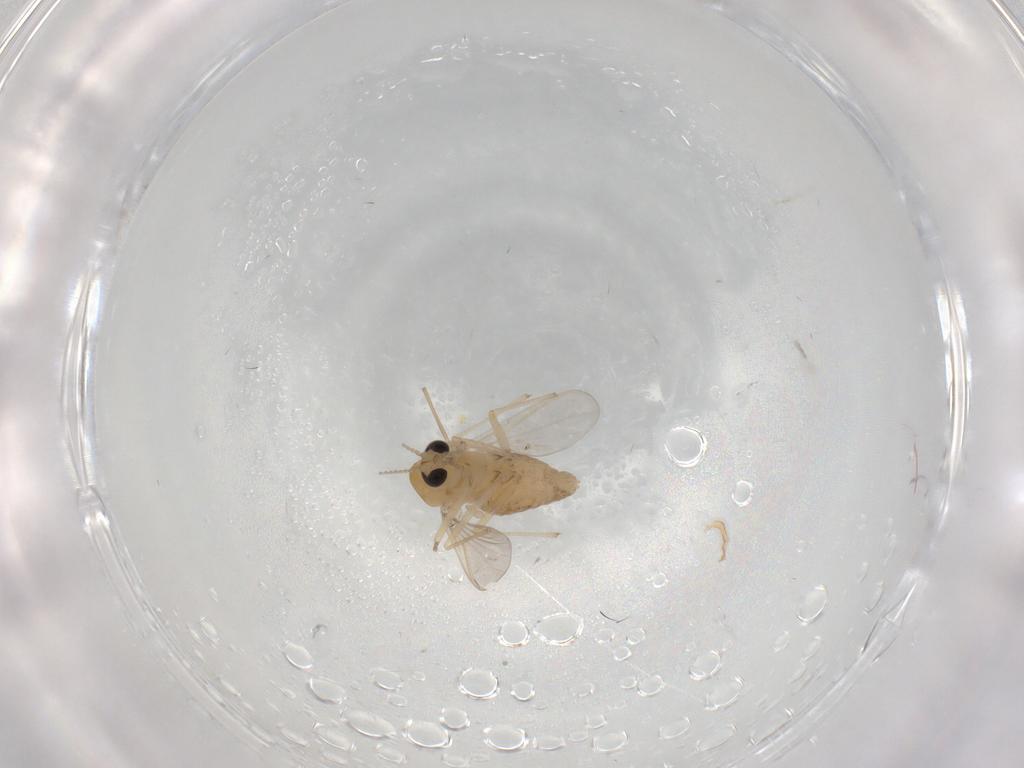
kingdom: Animalia
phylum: Arthropoda
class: Insecta
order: Diptera
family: Chironomidae
